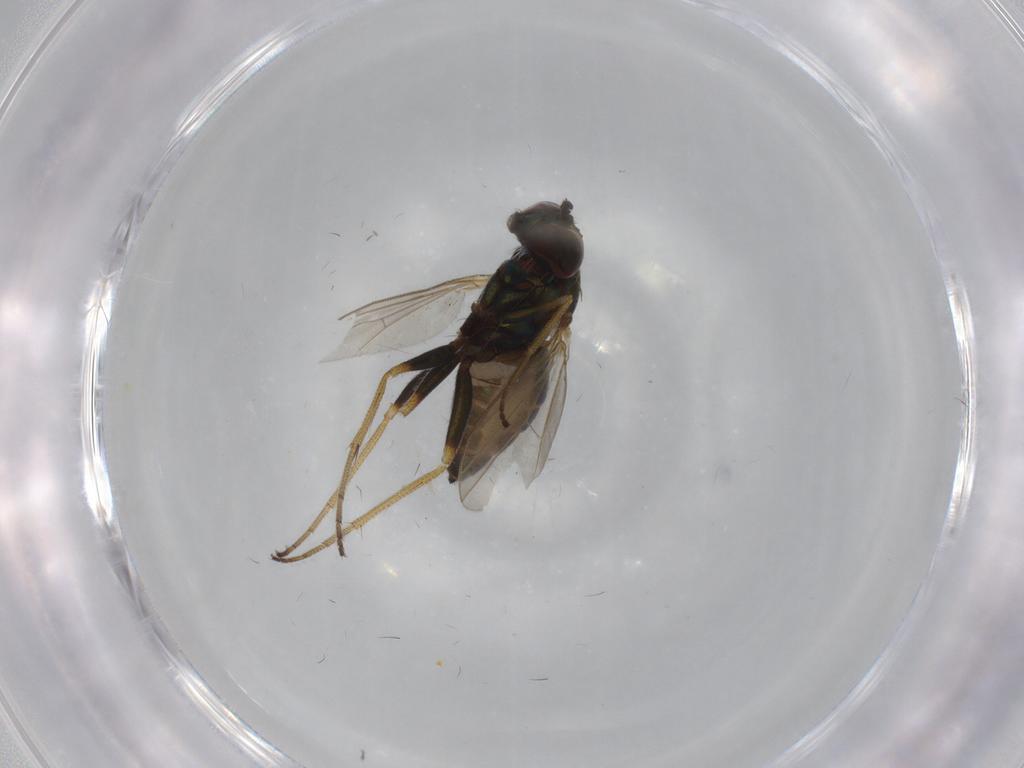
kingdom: Animalia
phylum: Arthropoda
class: Insecta
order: Diptera
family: Dolichopodidae
